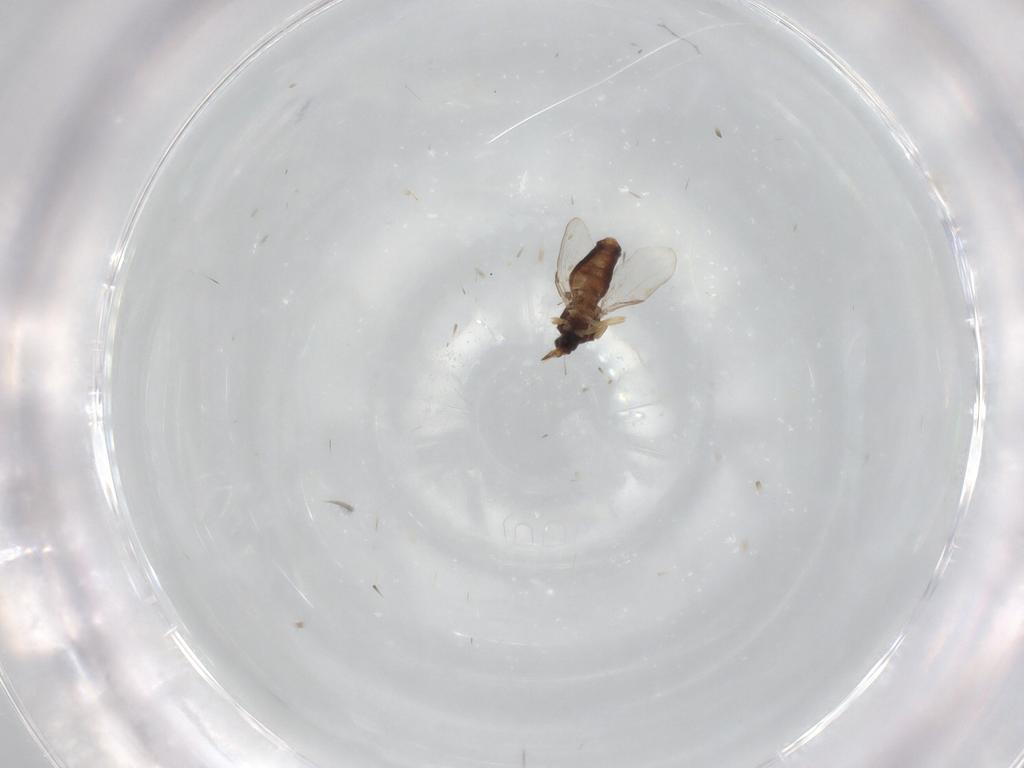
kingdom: Animalia
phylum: Arthropoda
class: Insecta
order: Diptera
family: Ceratopogonidae
